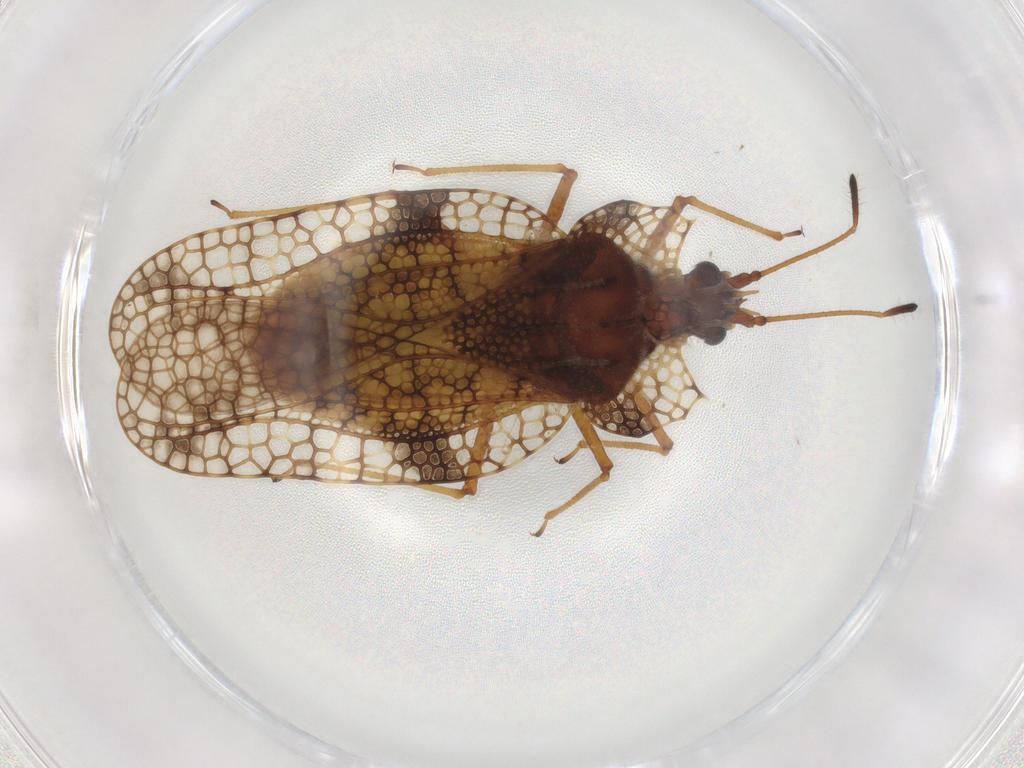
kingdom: Animalia
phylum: Arthropoda
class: Insecta
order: Hemiptera
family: Tingidae
